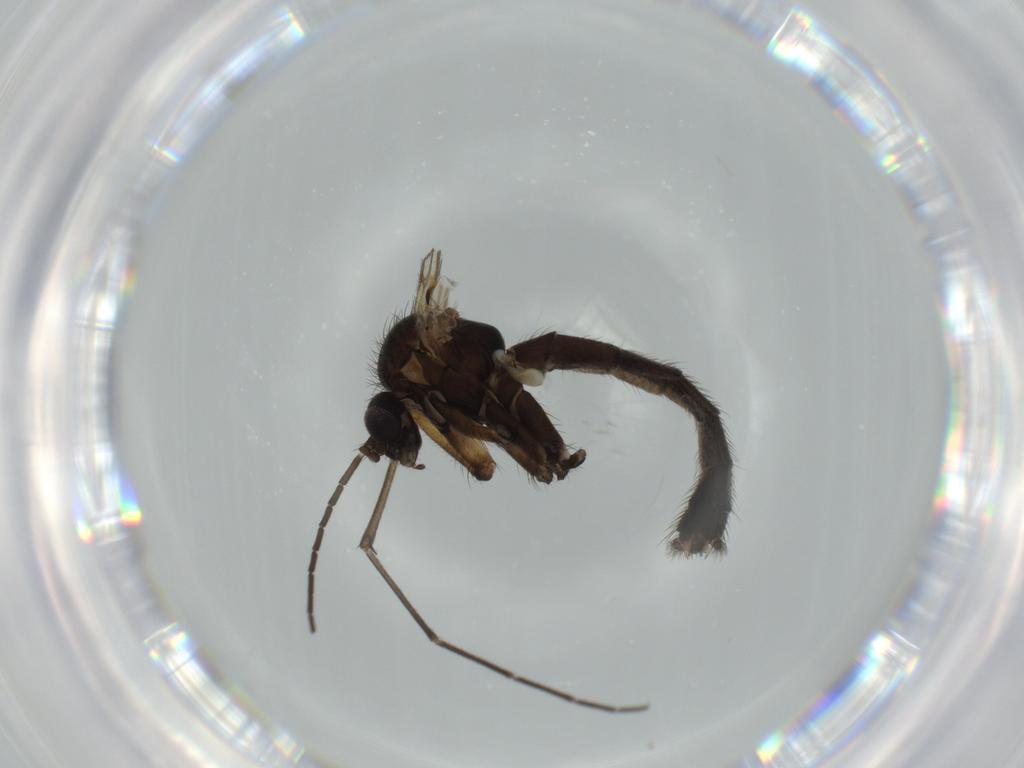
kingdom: Animalia
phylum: Arthropoda
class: Insecta
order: Diptera
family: Mycetophilidae
